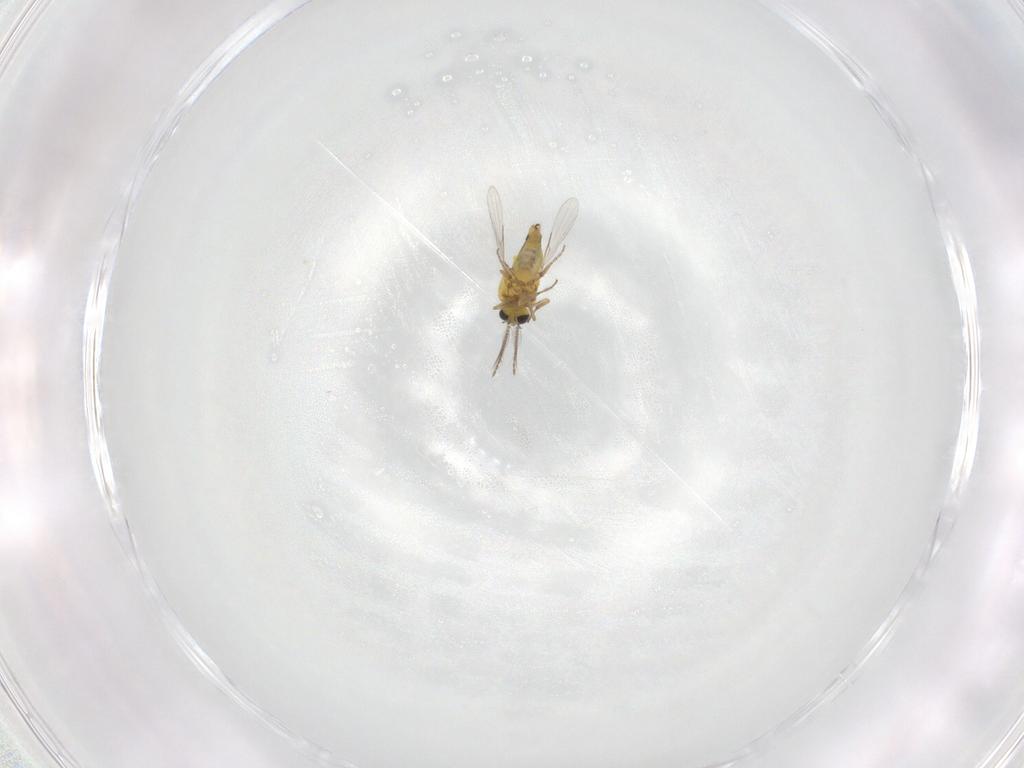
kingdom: Animalia
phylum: Arthropoda
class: Insecta
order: Diptera
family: Ceratopogonidae
